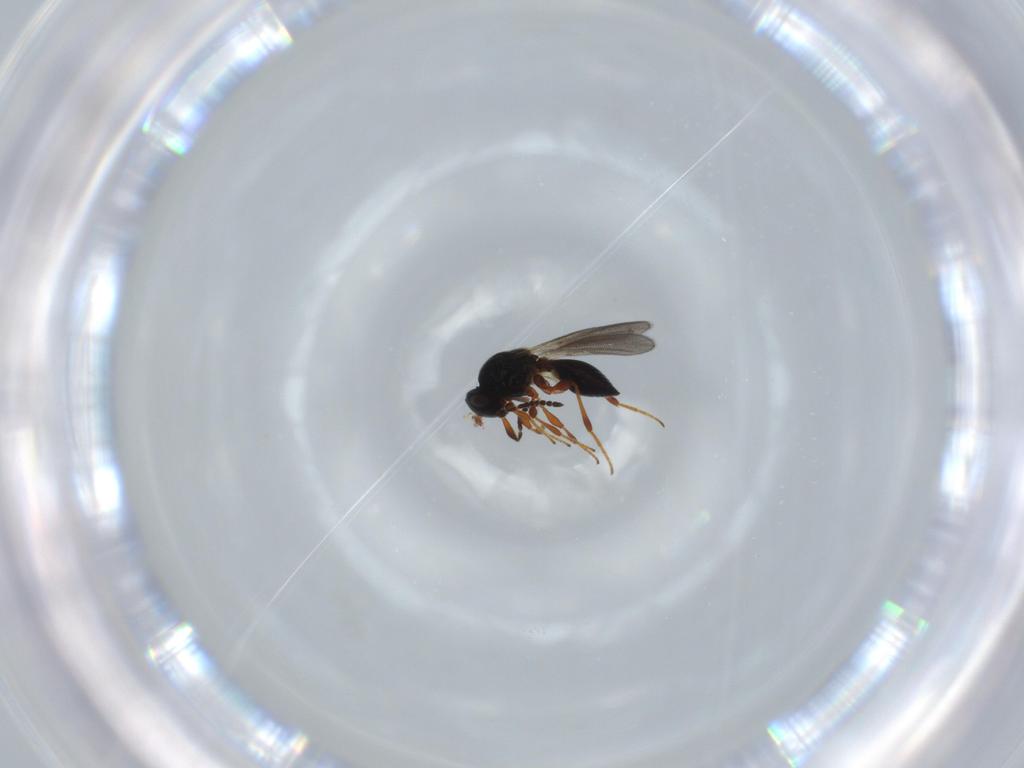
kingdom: Animalia
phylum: Arthropoda
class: Insecta
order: Hymenoptera
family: Platygastridae
